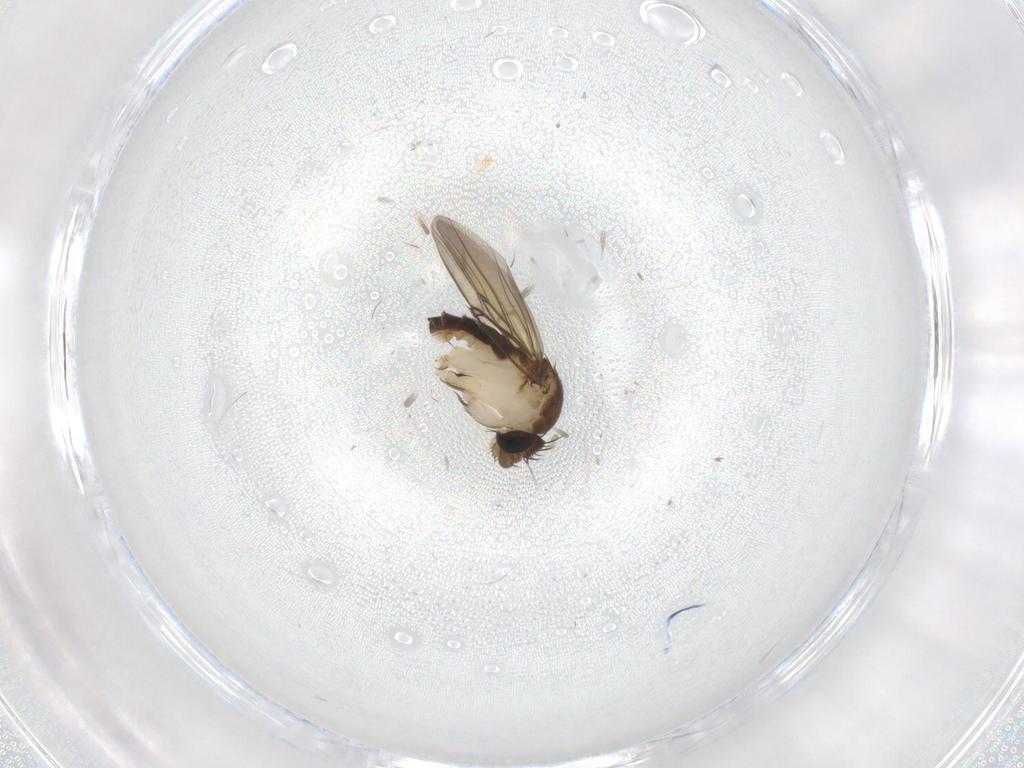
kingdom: Animalia
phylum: Arthropoda
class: Insecta
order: Diptera
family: Phoridae
